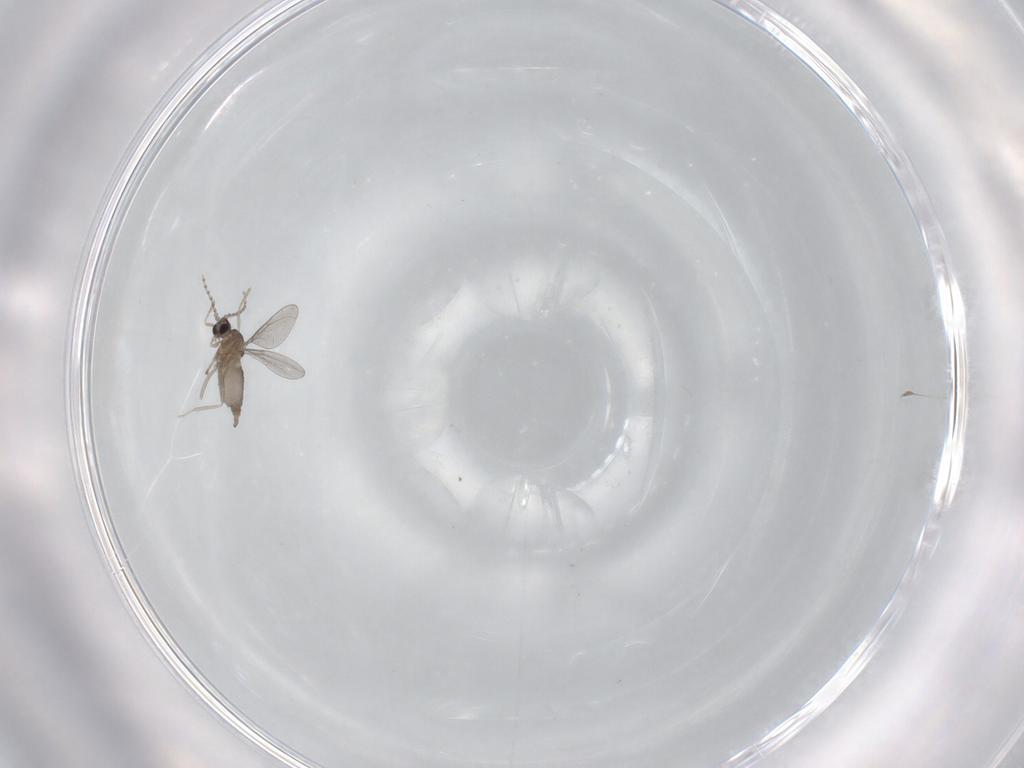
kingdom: Animalia
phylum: Arthropoda
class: Insecta
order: Diptera
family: Cecidomyiidae
